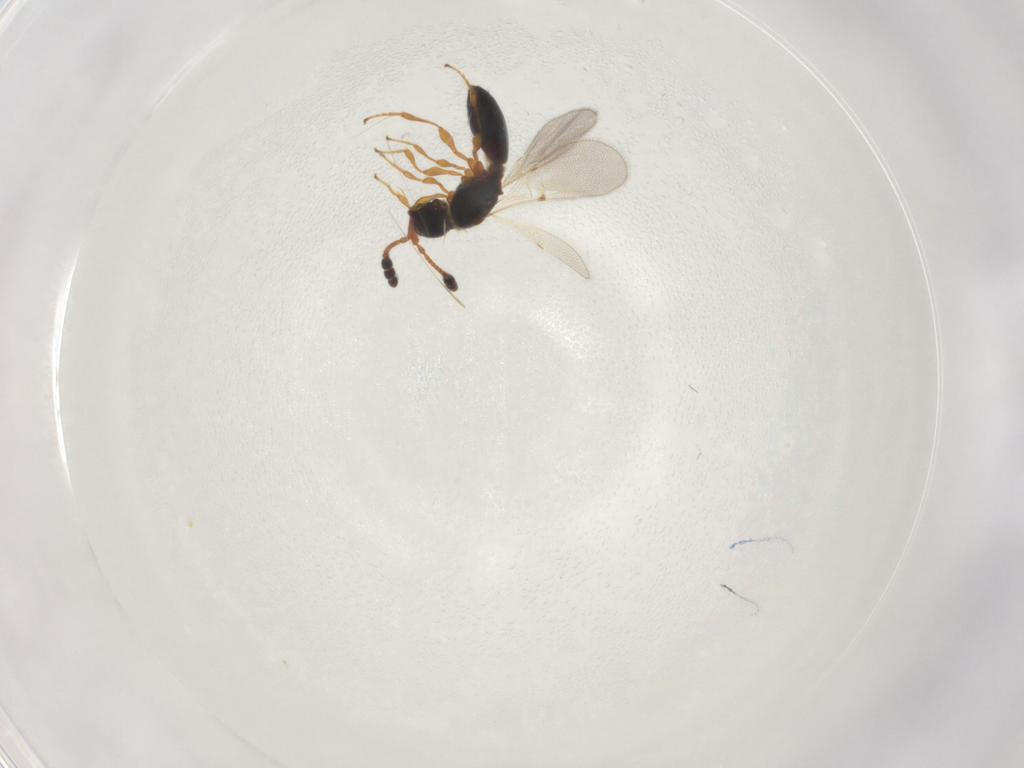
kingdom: Animalia
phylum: Arthropoda
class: Insecta
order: Hymenoptera
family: Diapriidae
